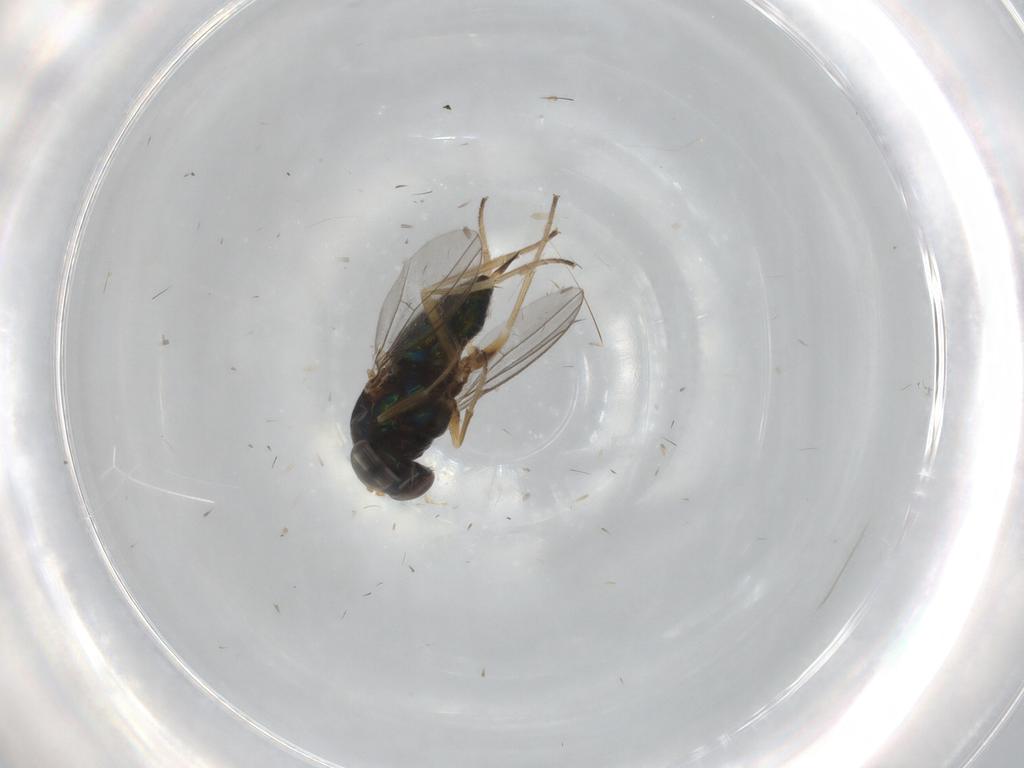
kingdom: Animalia
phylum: Arthropoda
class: Insecta
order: Diptera
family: Dolichopodidae
